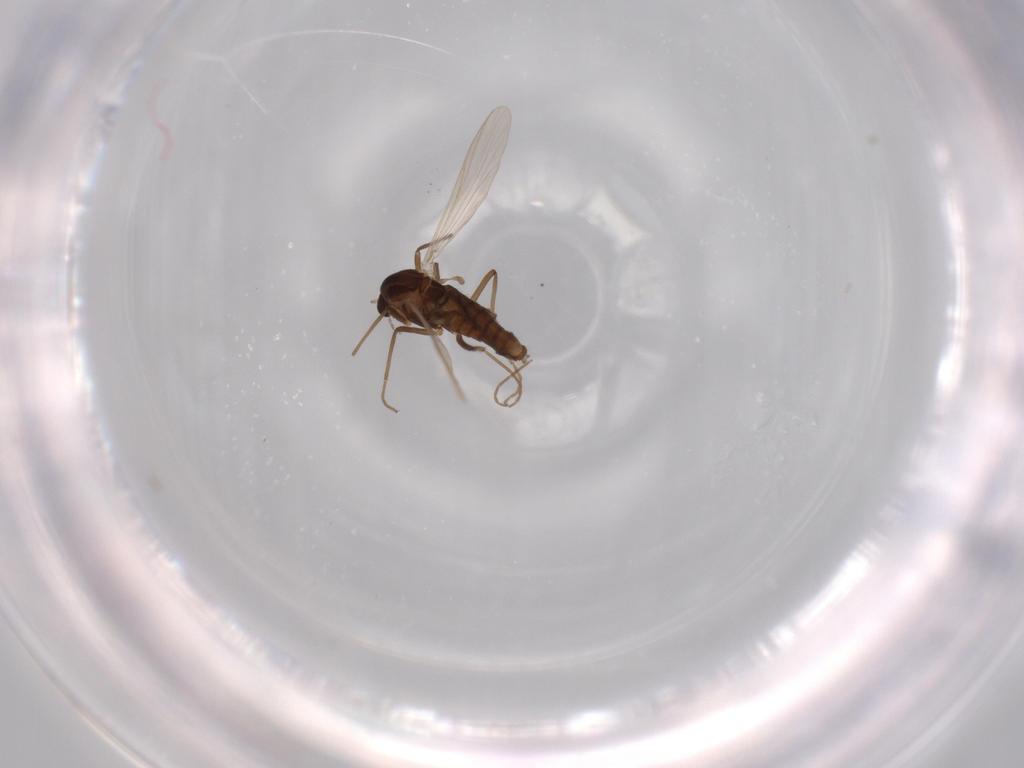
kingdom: Animalia
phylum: Arthropoda
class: Insecta
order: Diptera
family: Chironomidae
